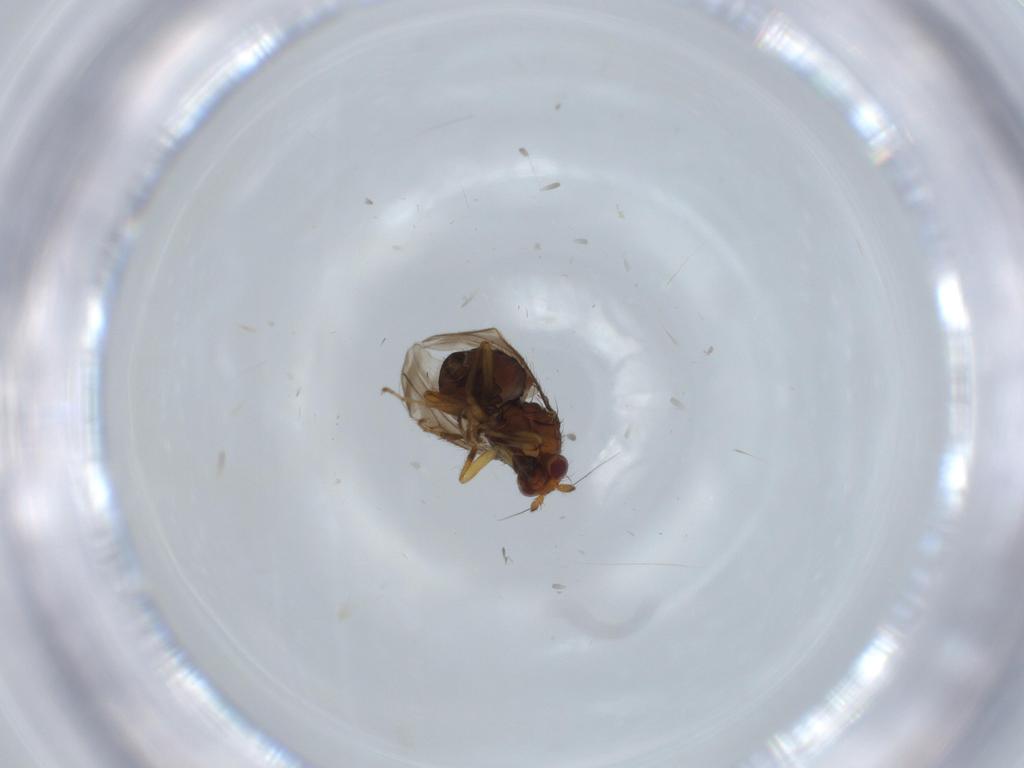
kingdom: Animalia
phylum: Arthropoda
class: Insecta
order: Diptera
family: Sphaeroceridae
